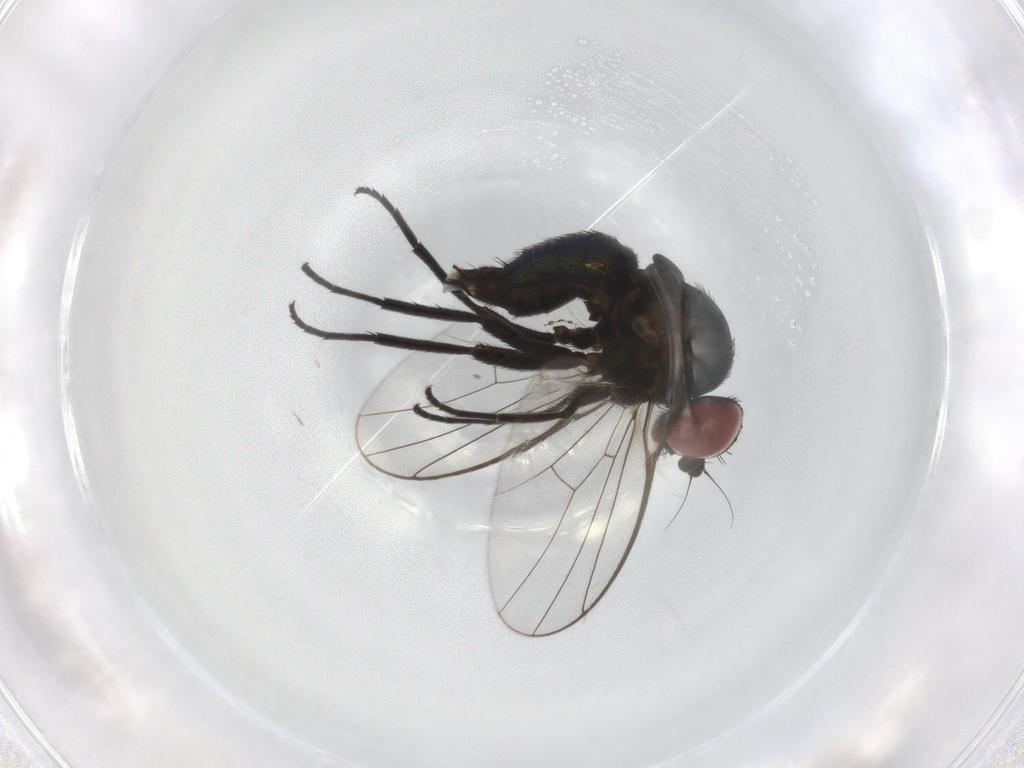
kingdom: Animalia
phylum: Arthropoda
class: Insecta
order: Diptera
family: Agromyzidae
